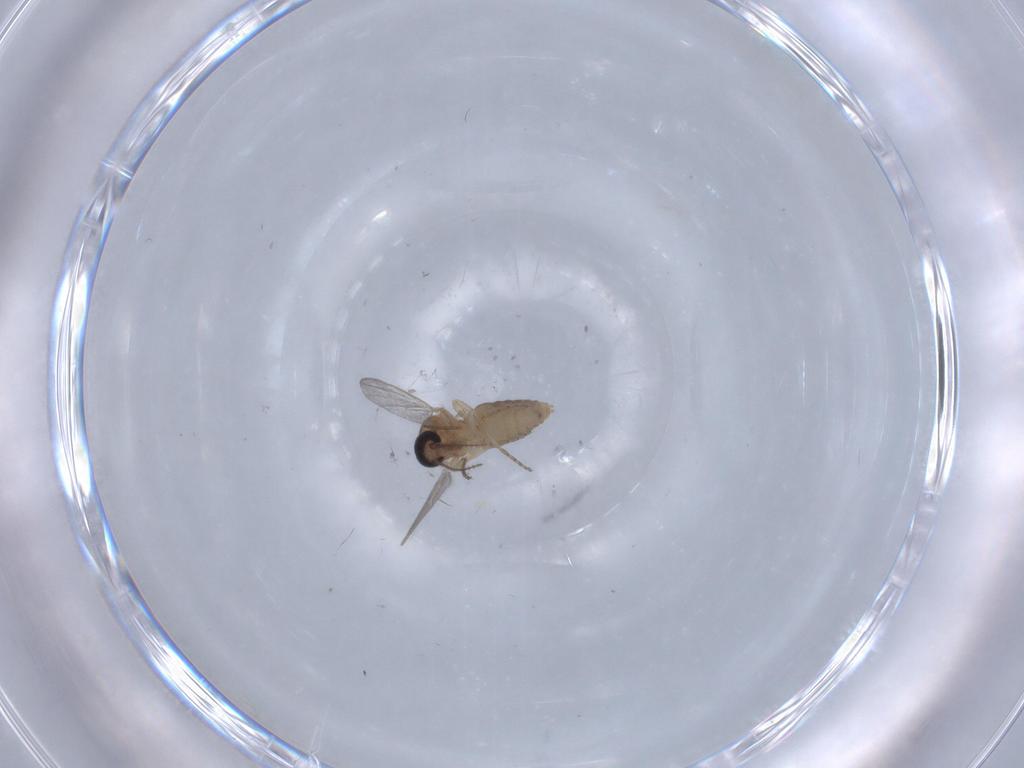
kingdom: Animalia
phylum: Arthropoda
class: Insecta
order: Diptera
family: Ceratopogonidae
